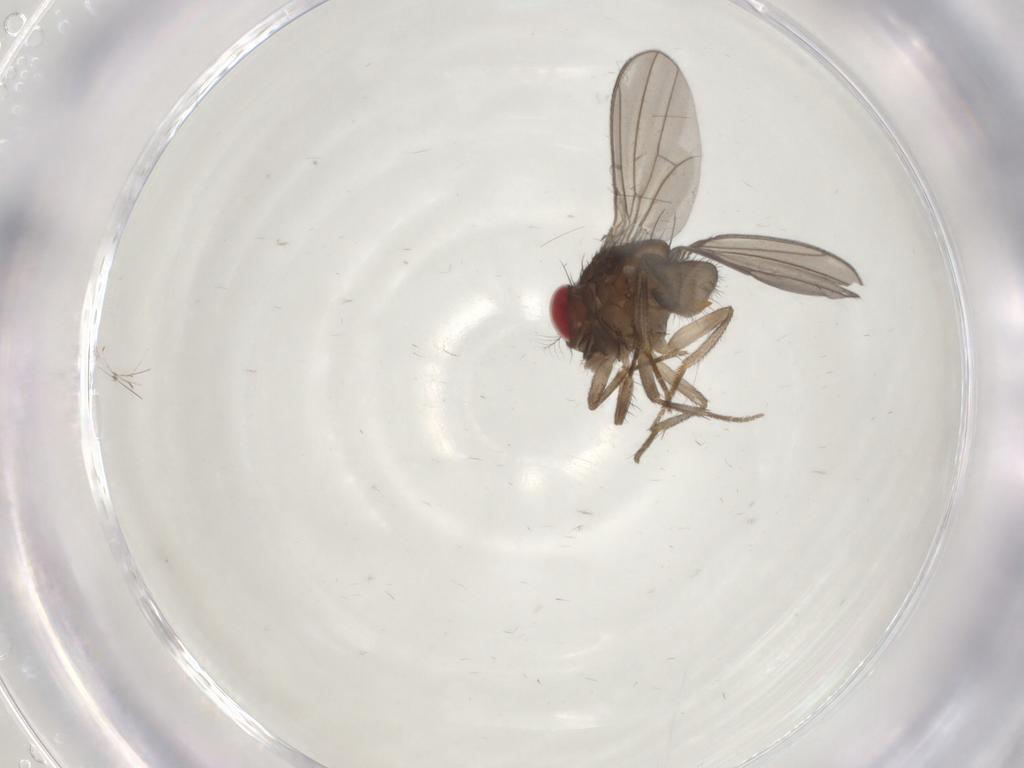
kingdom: Animalia
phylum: Arthropoda
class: Insecta
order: Diptera
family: Drosophilidae
